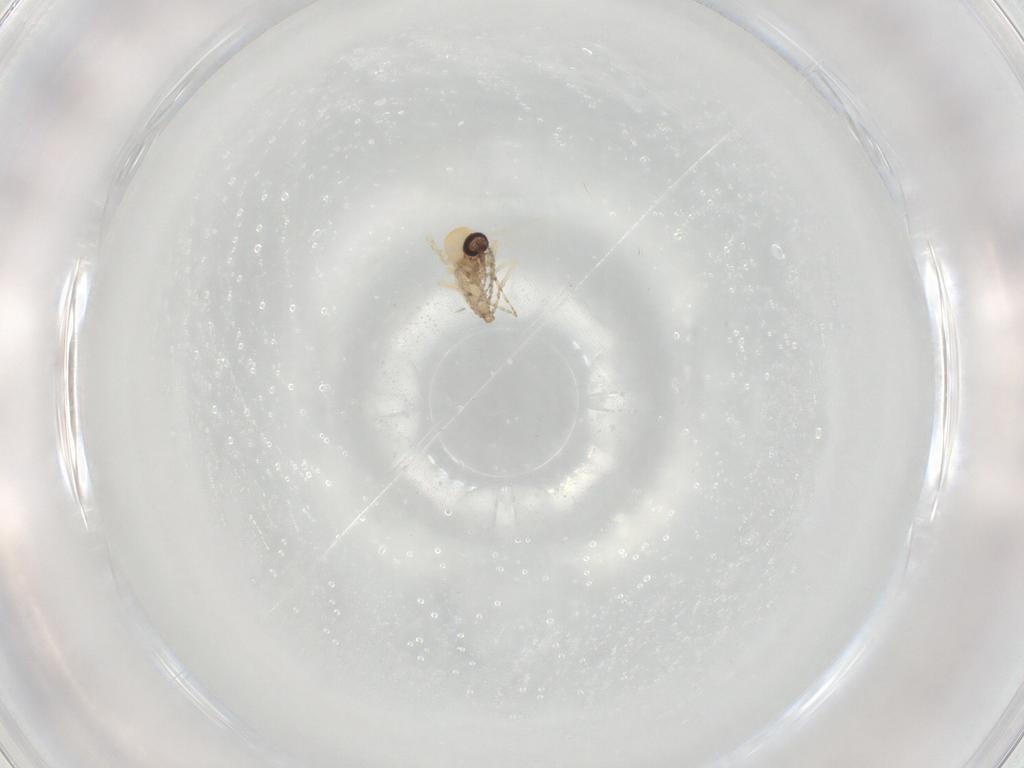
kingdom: Animalia
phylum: Arthropoda
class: Insecta
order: Diptera
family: Ceratopogonidae
